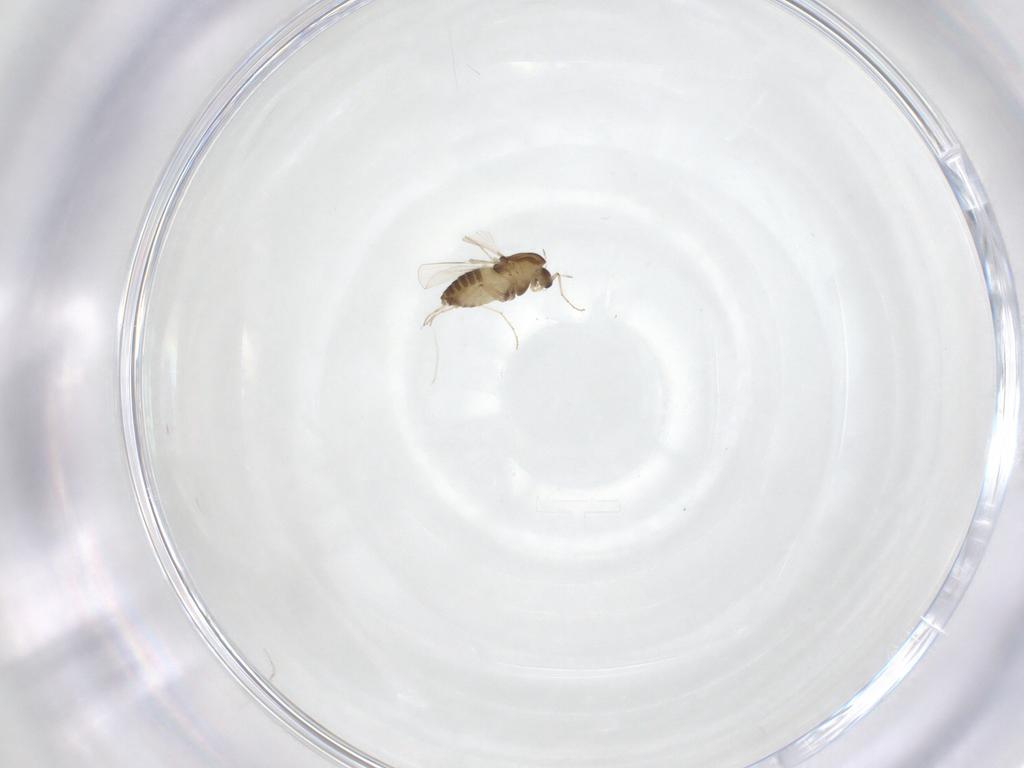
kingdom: Animalia
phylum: Arthropoda
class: Insecta
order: Diptera
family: Chironomidae
